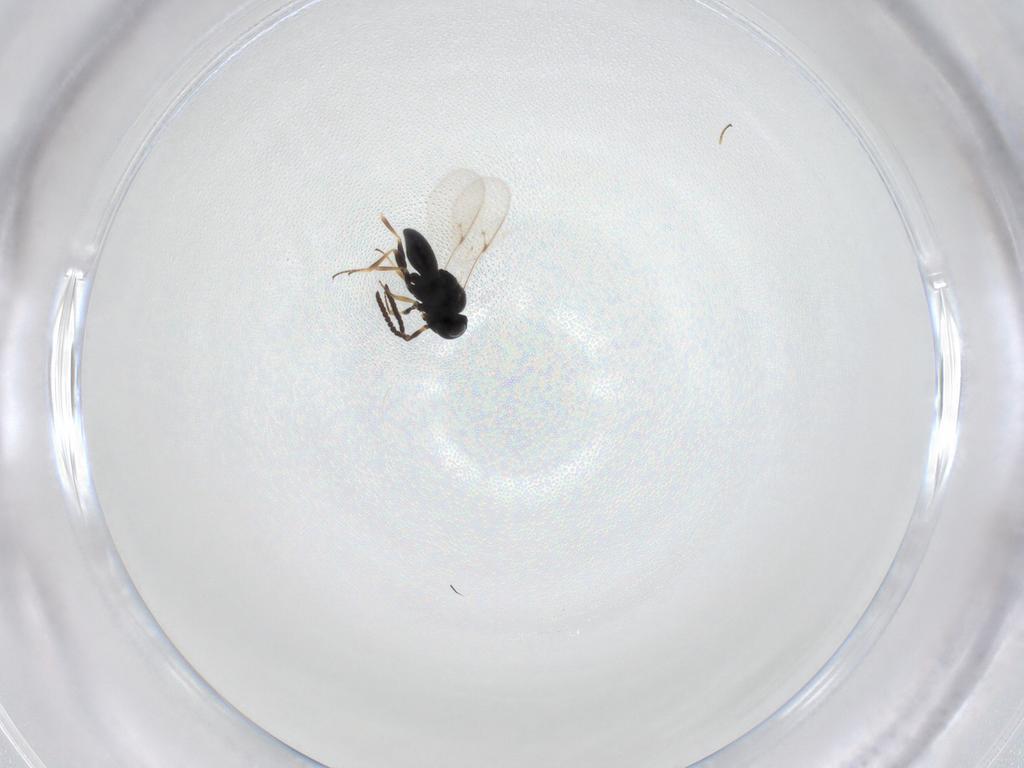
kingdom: Animalia
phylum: Arthropoda
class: Insecta
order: Hymenoptera
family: Scelionidae
